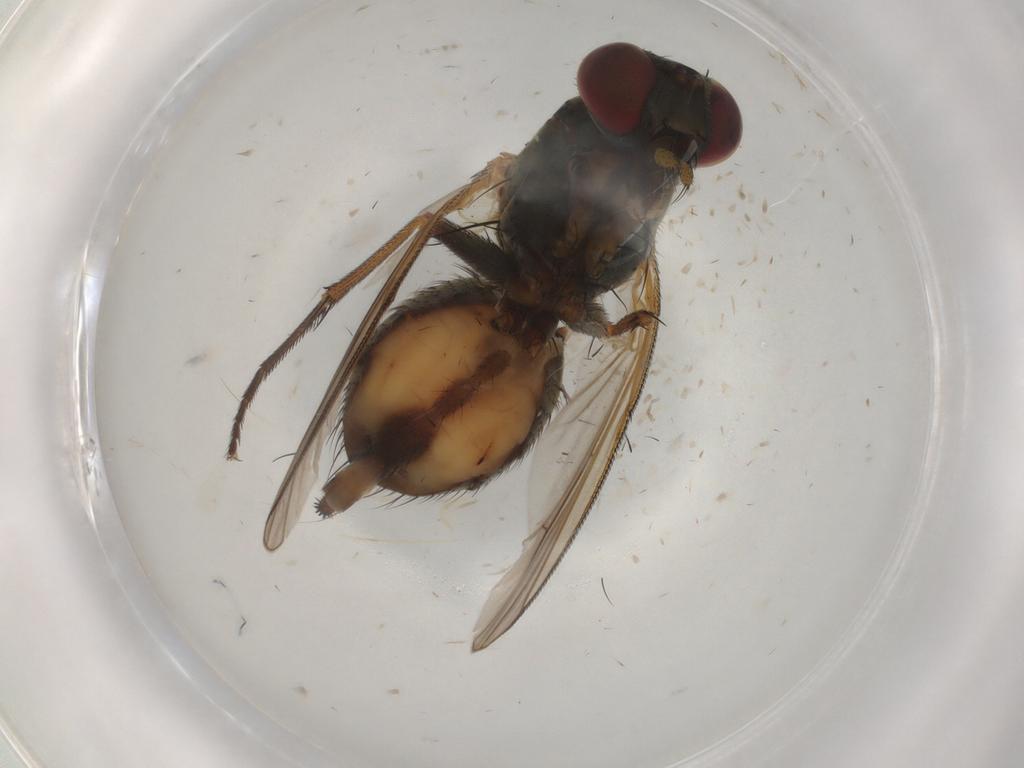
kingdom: Animalia
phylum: Arthropoda
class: Insecta
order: Diptera
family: Muscidae
